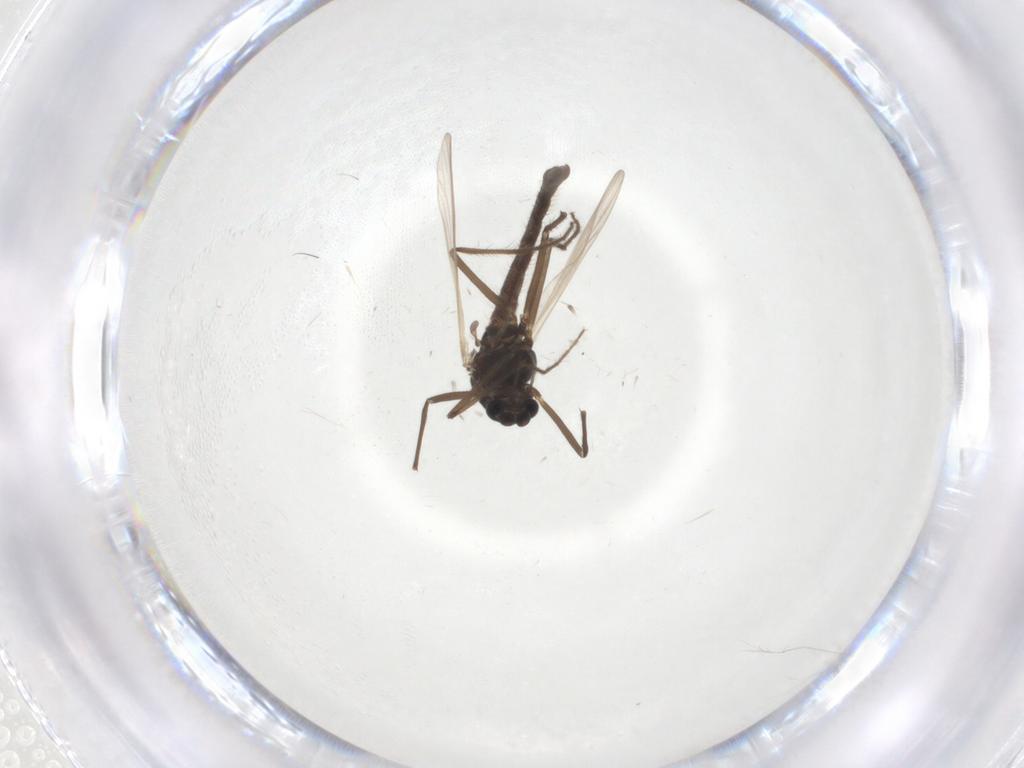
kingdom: Animalia
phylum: Arthropoda
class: Insecta
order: Diptera
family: Chironomidae
